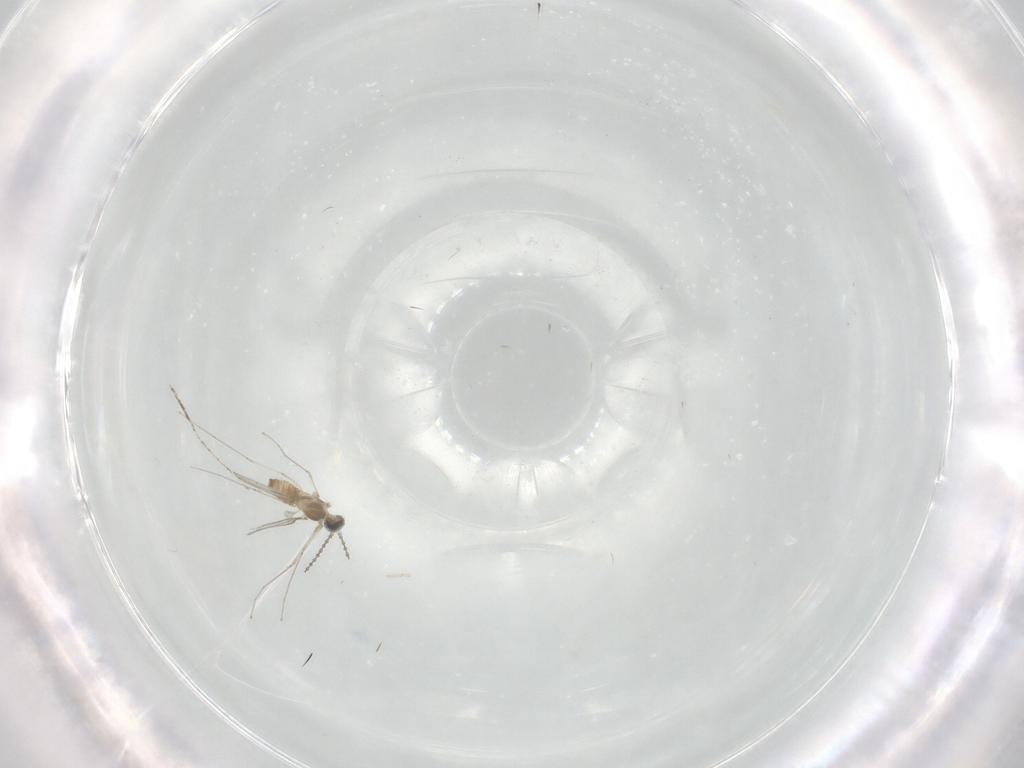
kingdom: Animalia
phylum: Arthropoda
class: Insecta
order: Diptera
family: Cecidomyiidae
